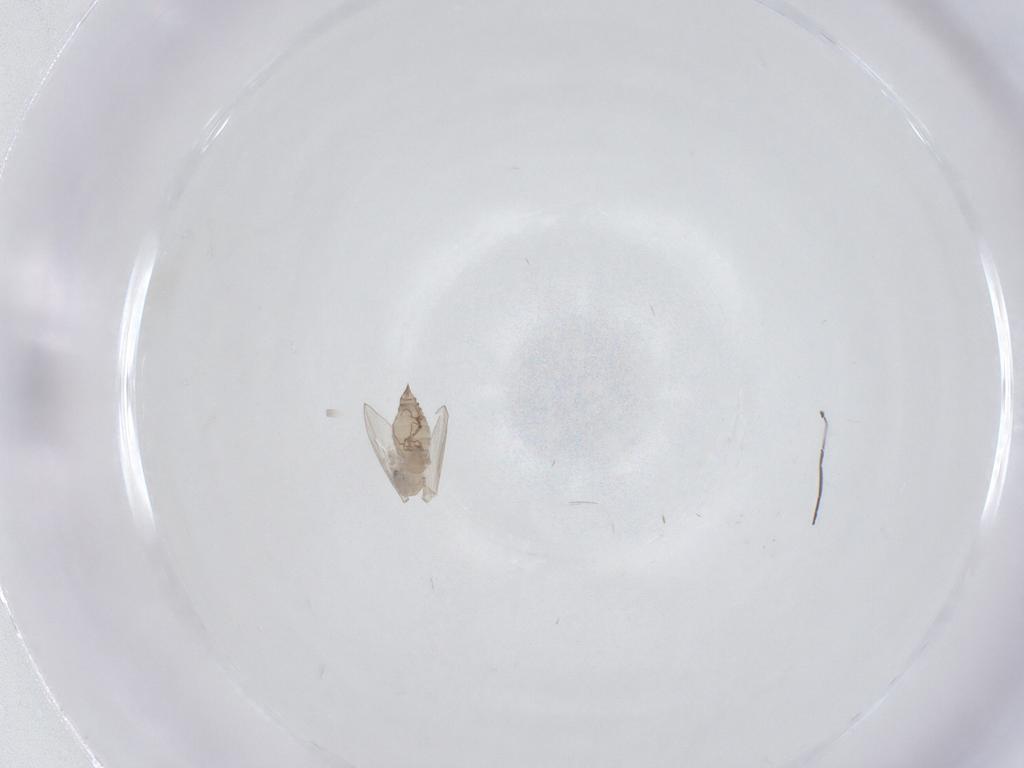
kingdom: Animalia
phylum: Arthropoda
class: Insecta
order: Diptera
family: Psychodidae
